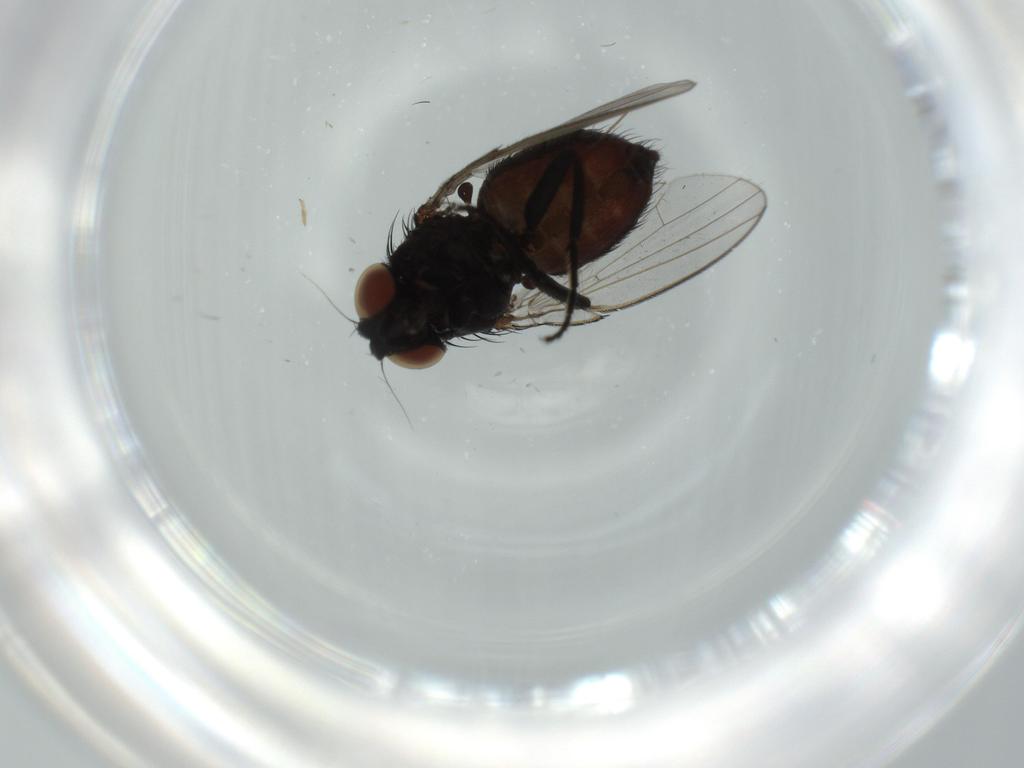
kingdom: Animalia
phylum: Arthropoda
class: Insecta
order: Diptera
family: Milichiidae
